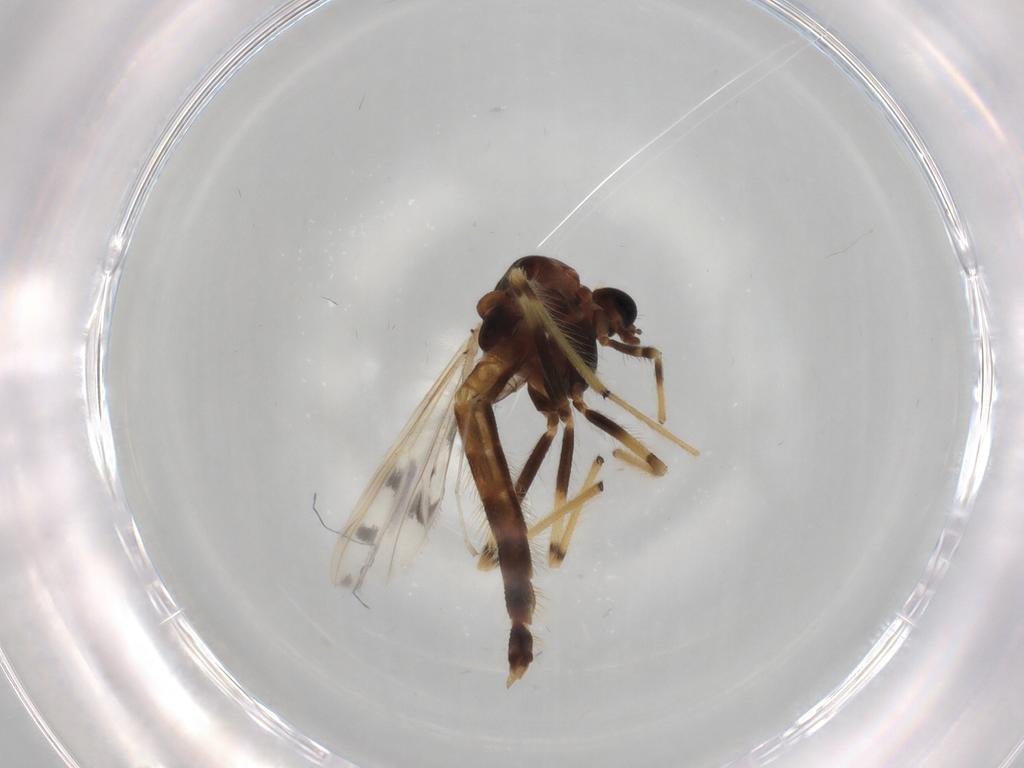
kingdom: Animalia
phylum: Arthropoda
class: Insecta
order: Diptera
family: Chironomidae
